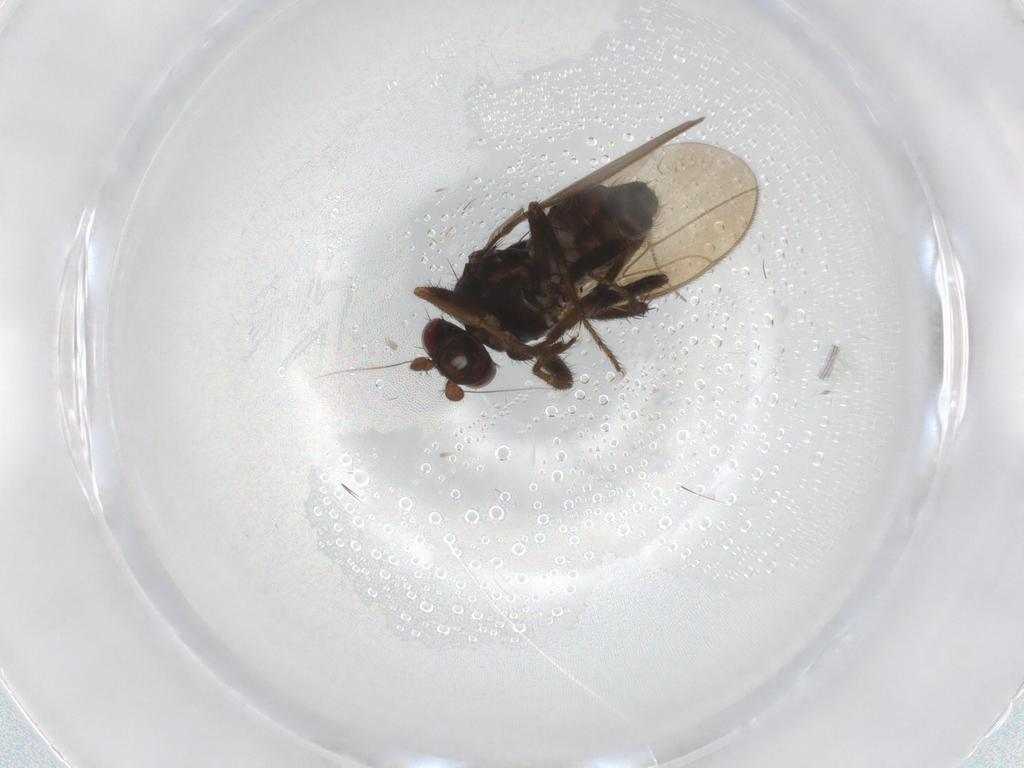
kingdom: Animalia
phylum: Arthropoda
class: Insecta
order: Diptera
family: Sphaeroceridae
